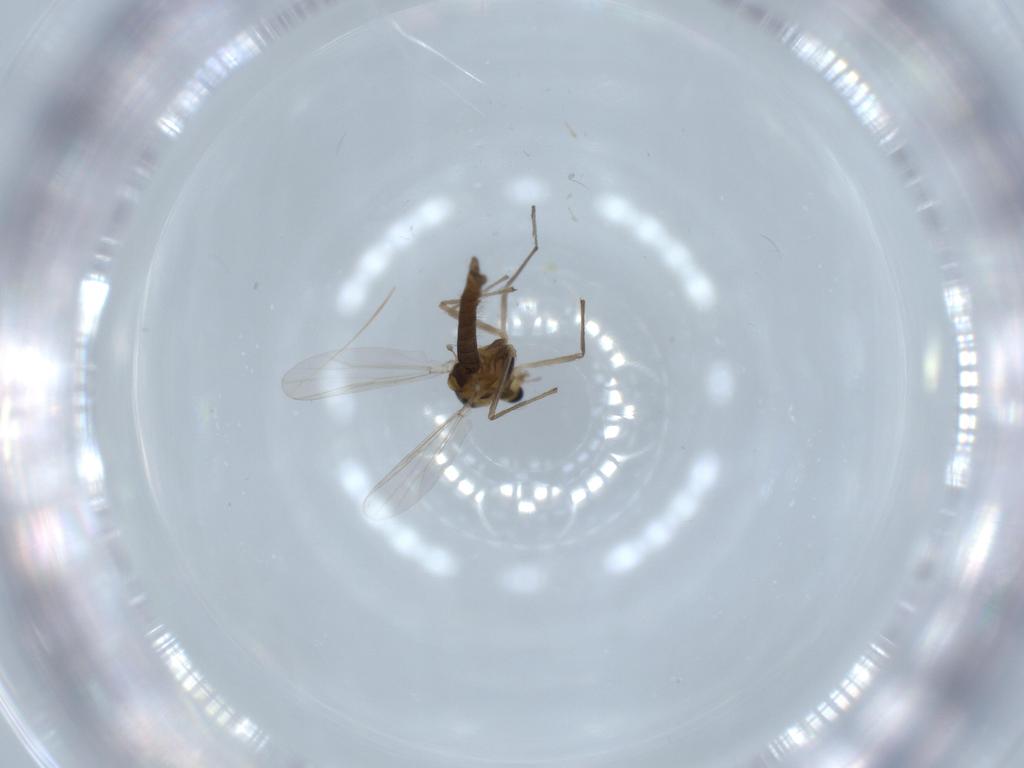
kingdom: Animalia
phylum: Arthropoda
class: Insecta
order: Diptera
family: Chironomidae
